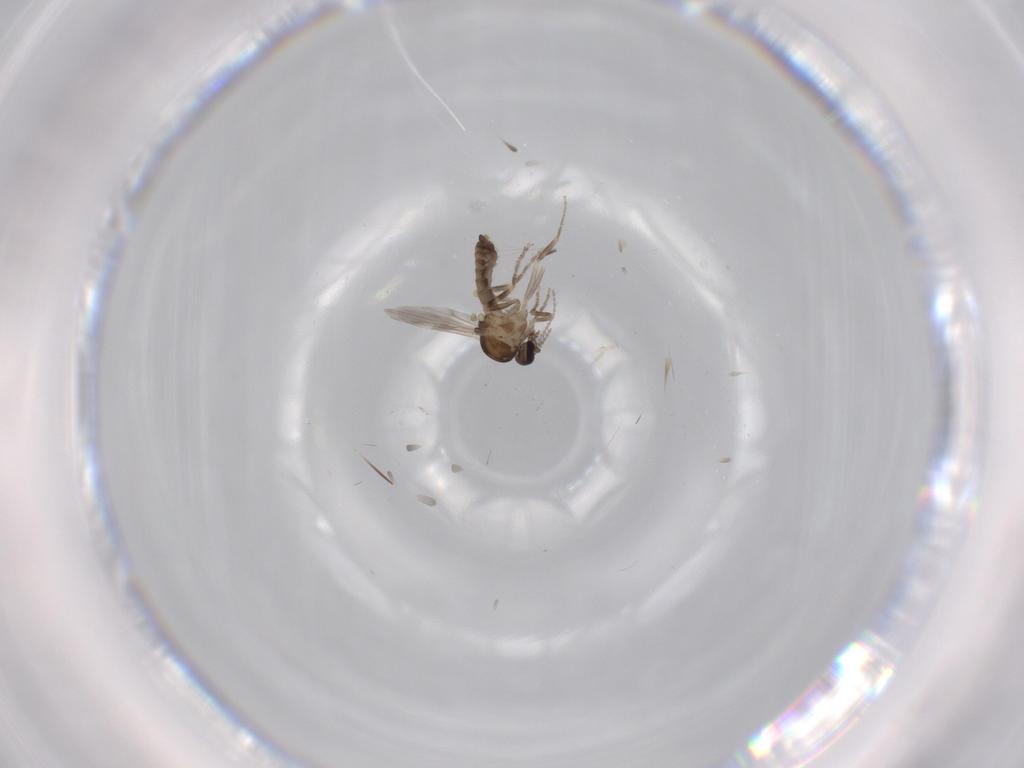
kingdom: Animalia
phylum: Arthropoda
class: Insecta
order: Diptera
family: Ceratopogonidae
